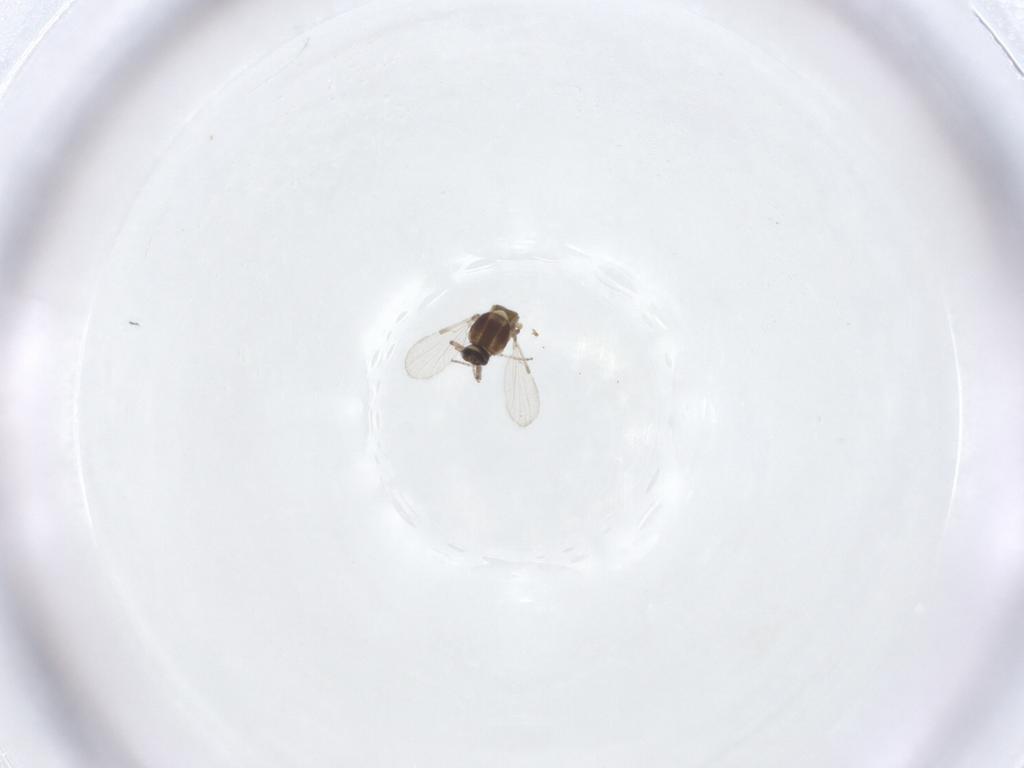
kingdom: Animalia
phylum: Arthropoda
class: Insecta
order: Diptera
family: Ceratopogonidae
